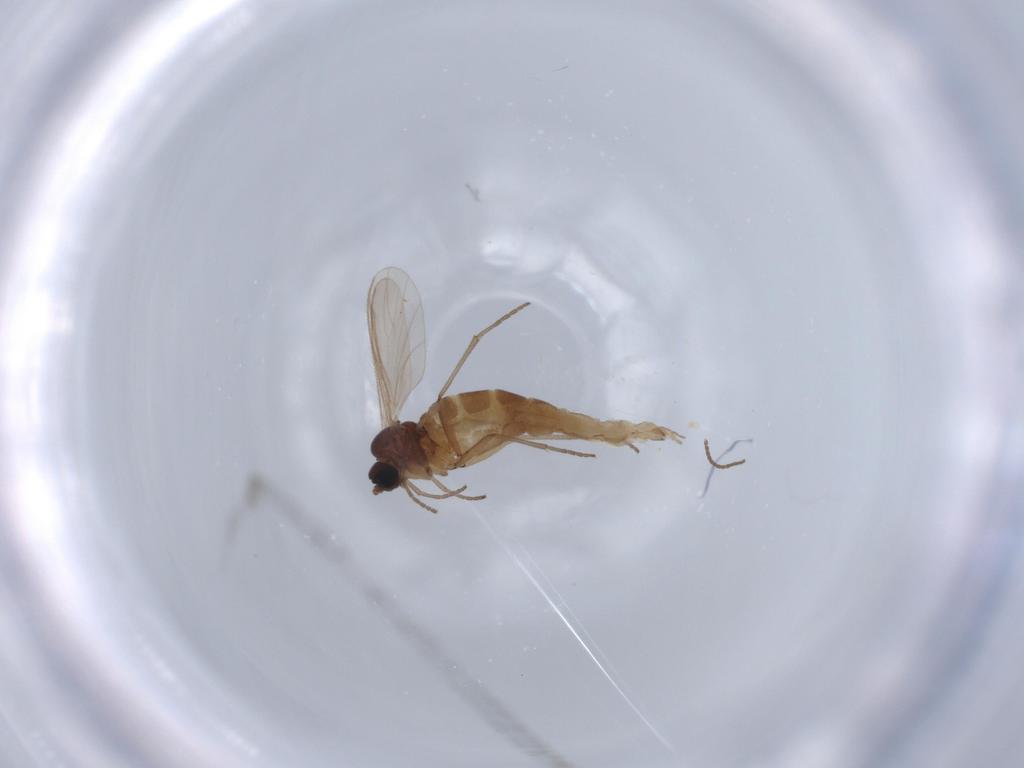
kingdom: Animalia
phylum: Arthropoda
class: Insecta
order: Diptera
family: Sciaridae
